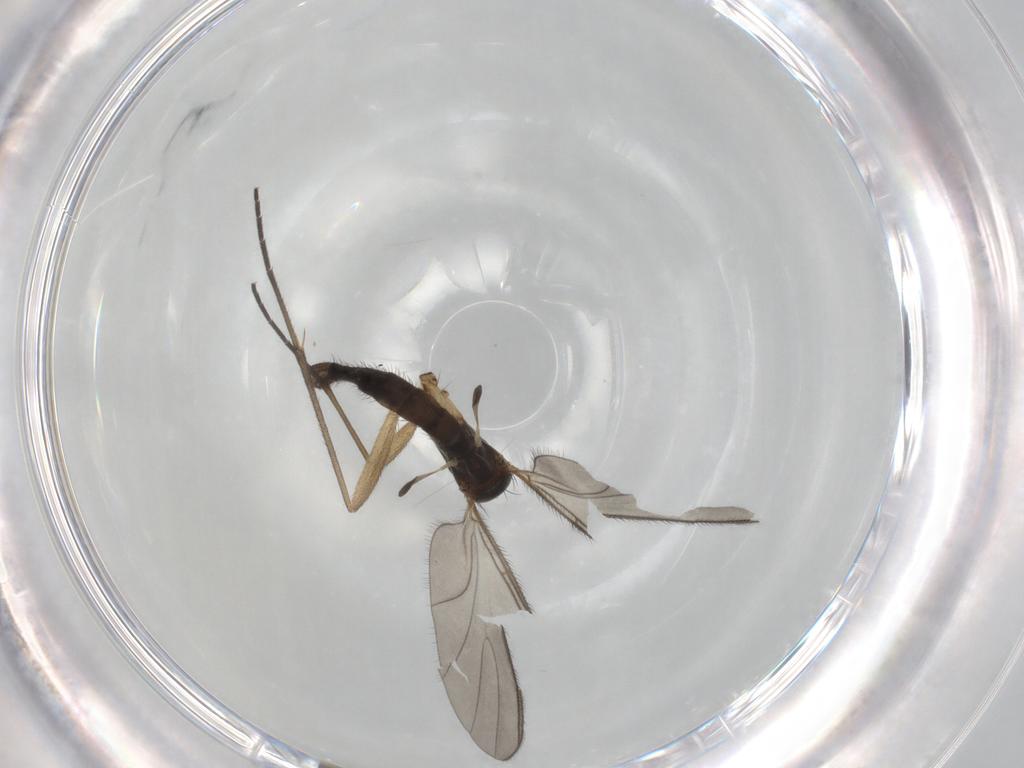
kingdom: Animalia
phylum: Arthropoda
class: Insecta
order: Diptera
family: Sciaridae
